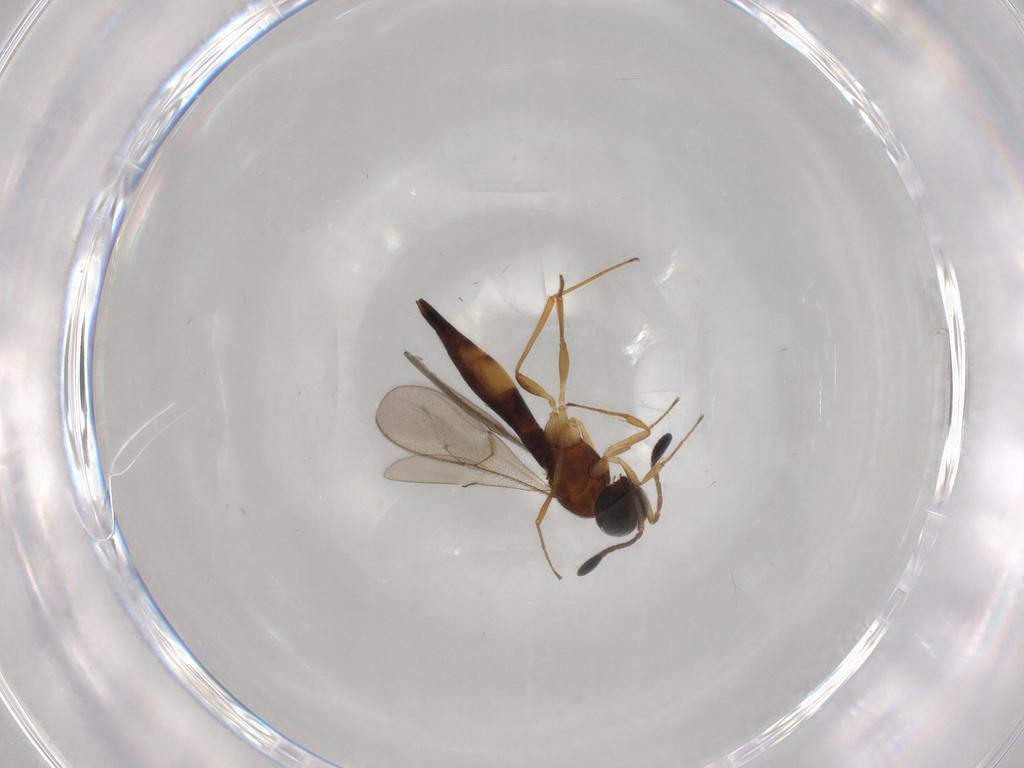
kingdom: Animalia
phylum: Arthropoda
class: Insecta
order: Hymenoptera
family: Scelionidae
